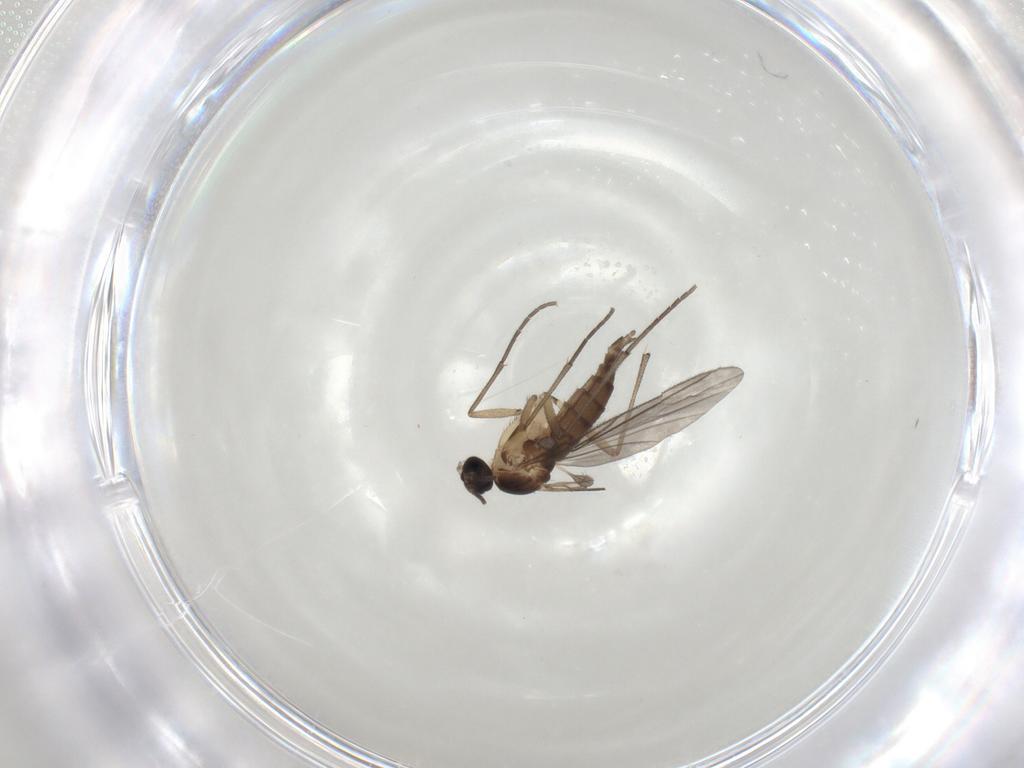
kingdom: Animalia
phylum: Arthropoda
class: Insecta
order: Diptera
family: Sciaridae
